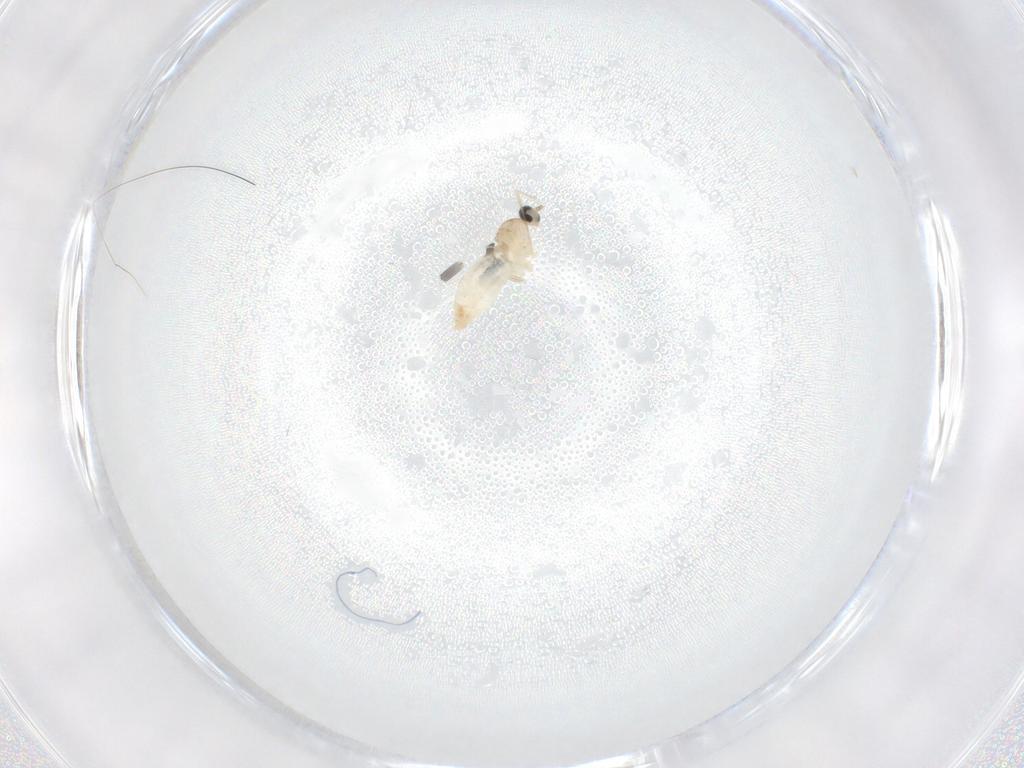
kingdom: Animalia
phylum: Arthropoda
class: Insecta
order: Diptera
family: Cecidomyiidae
